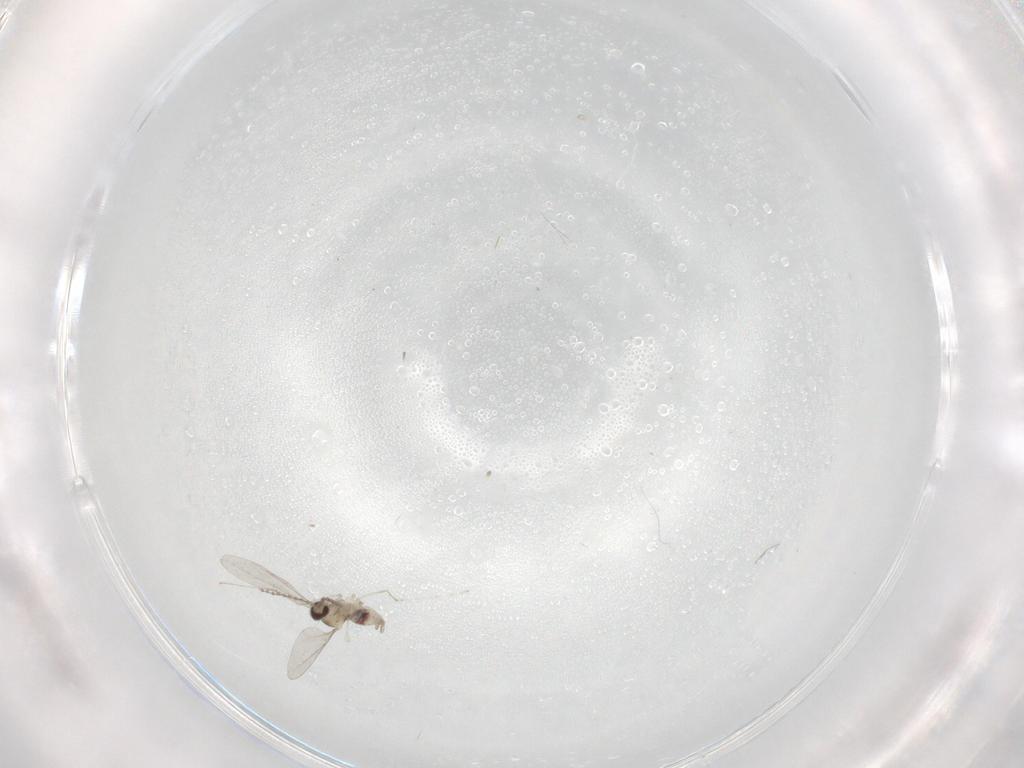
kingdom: Animalia
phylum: Arthropoda
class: Insecta
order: Diptera
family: Cecidomyiidae
